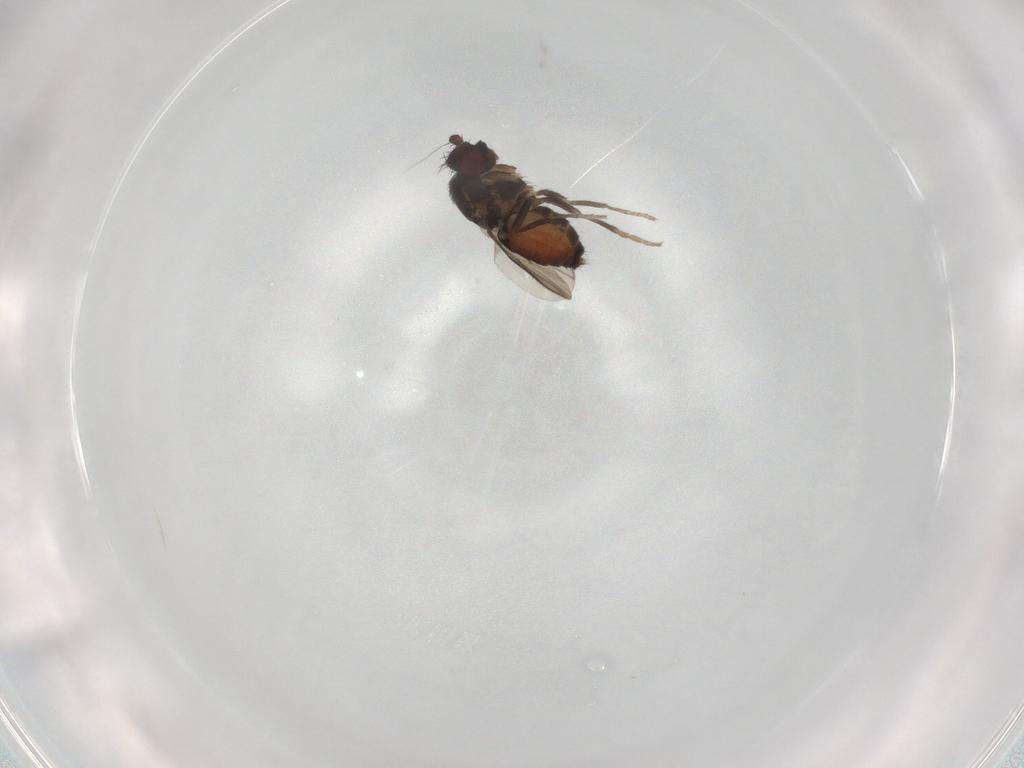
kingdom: Animalia
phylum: Arthropoda
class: Insecta
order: Diptera
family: Sphaeroceridae
